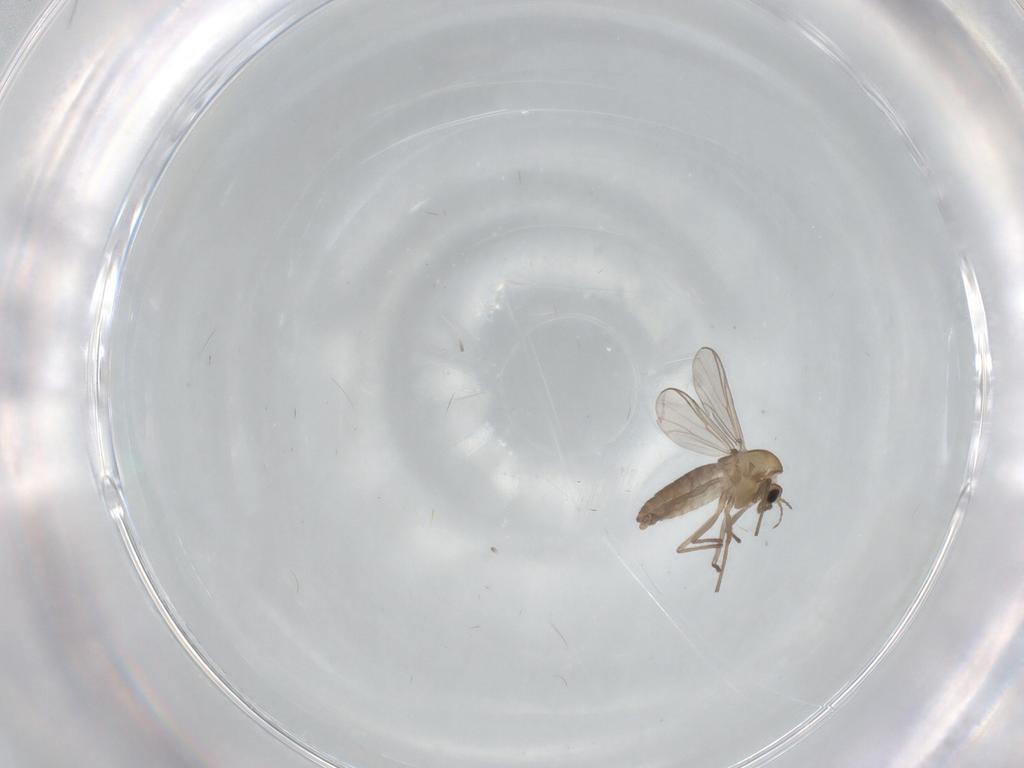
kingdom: Animalia
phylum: Arthropoda
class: Insecta
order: Diptera
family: Chironomidae
